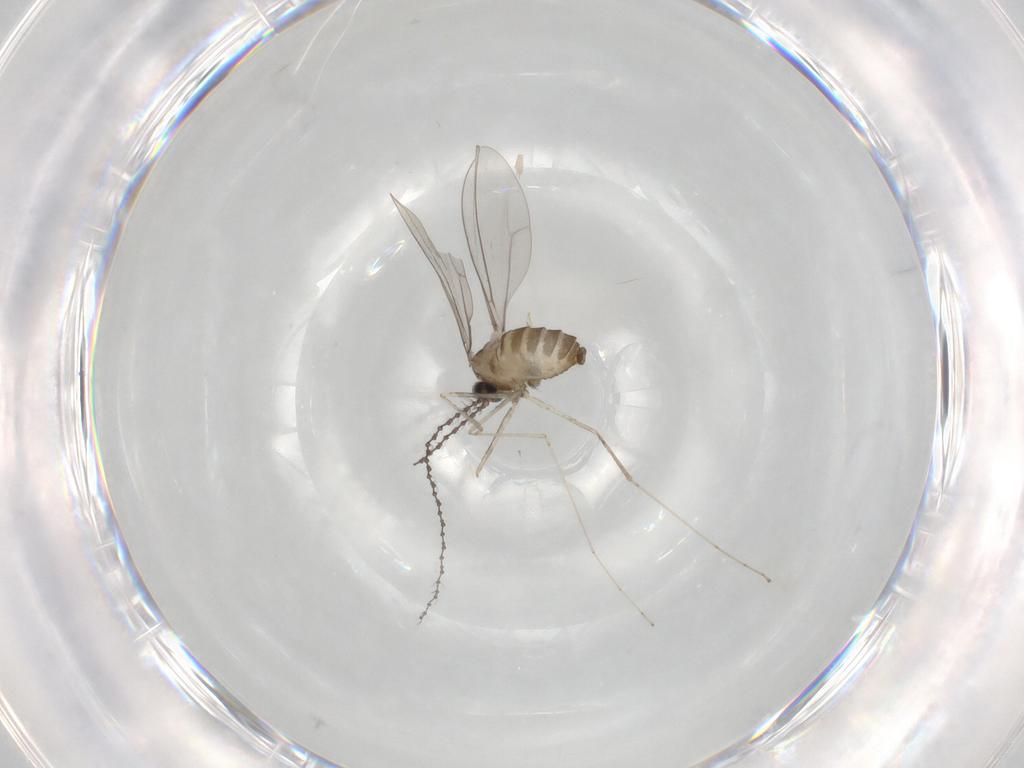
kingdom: Animalia
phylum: Arthropoda
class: Insecta
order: Diptera
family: Cecidomyiidae
